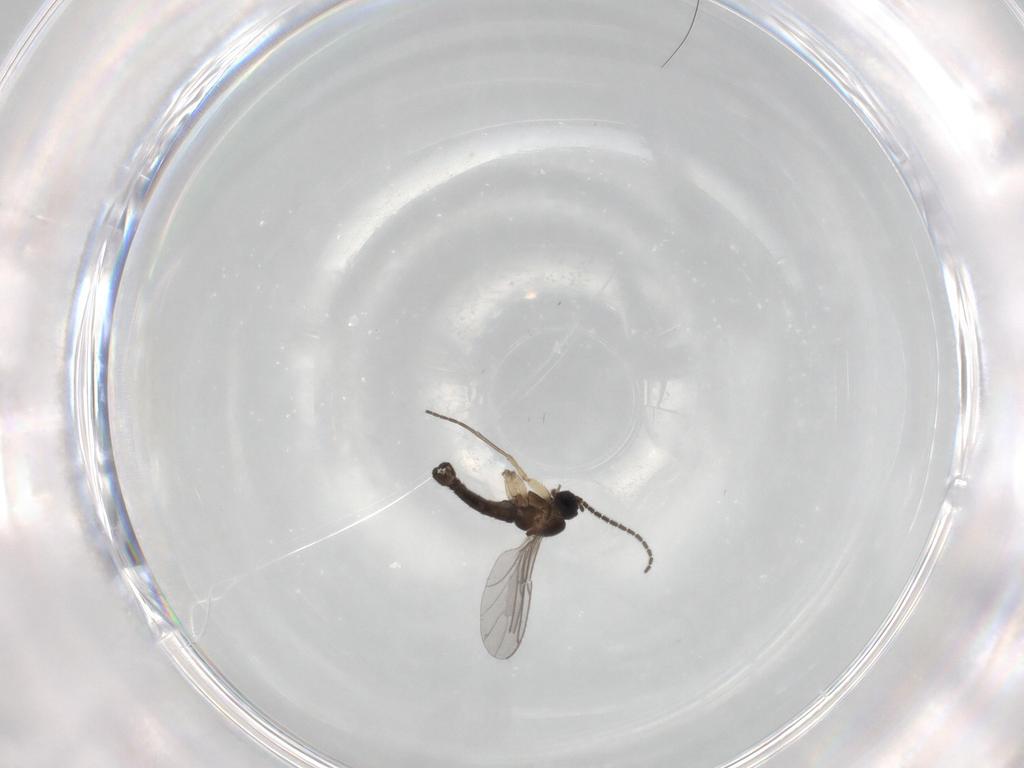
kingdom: Animalia
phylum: Arthropoda
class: Insecta
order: Diptera
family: Sciaridae
